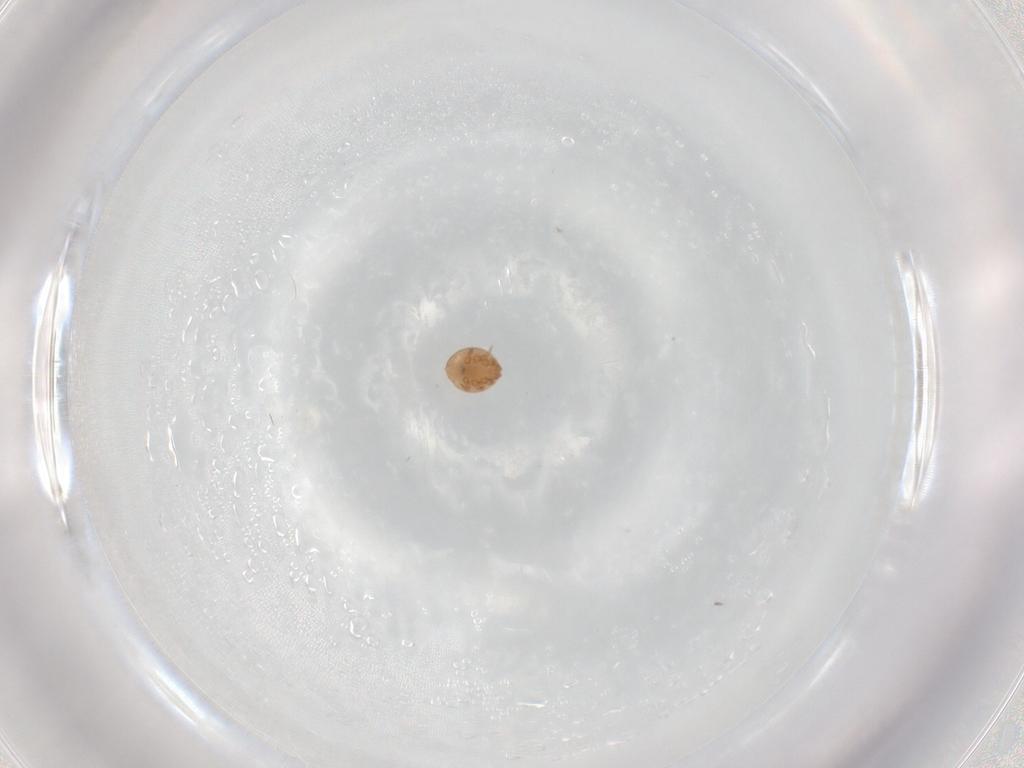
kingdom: Animalia
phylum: Arthropoda
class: Arachnida
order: Mesostigmata
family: Trematuridae
